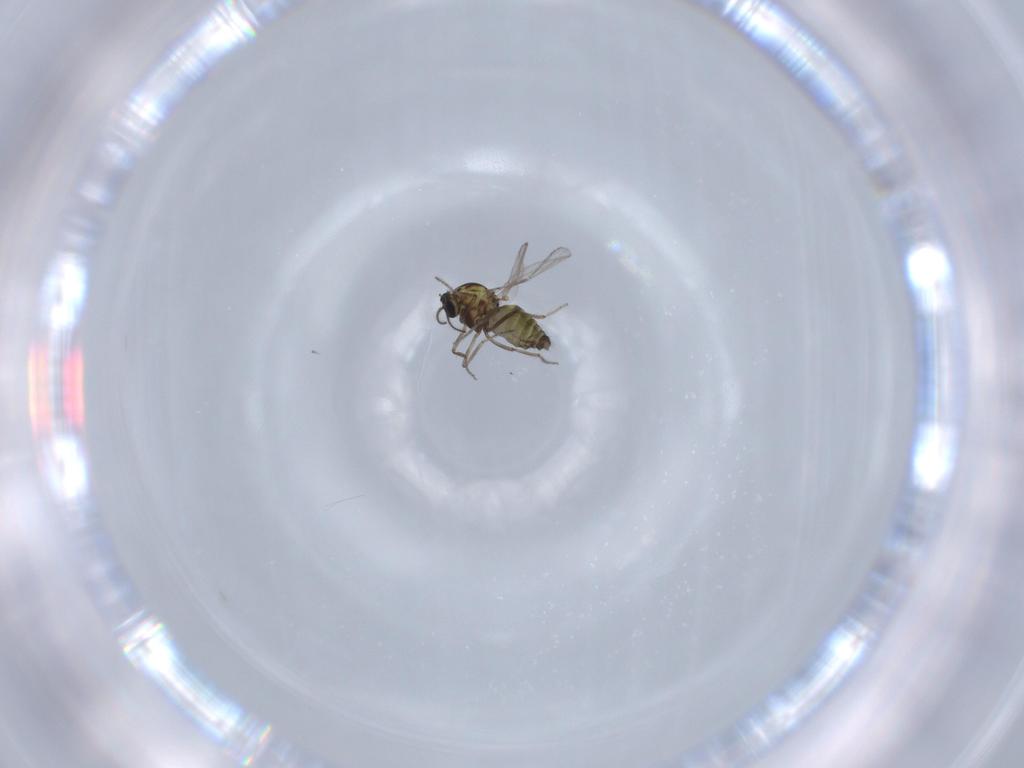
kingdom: Animalia
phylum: Arthropoda
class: Insecta
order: Diptera
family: Ceratopogonidae
